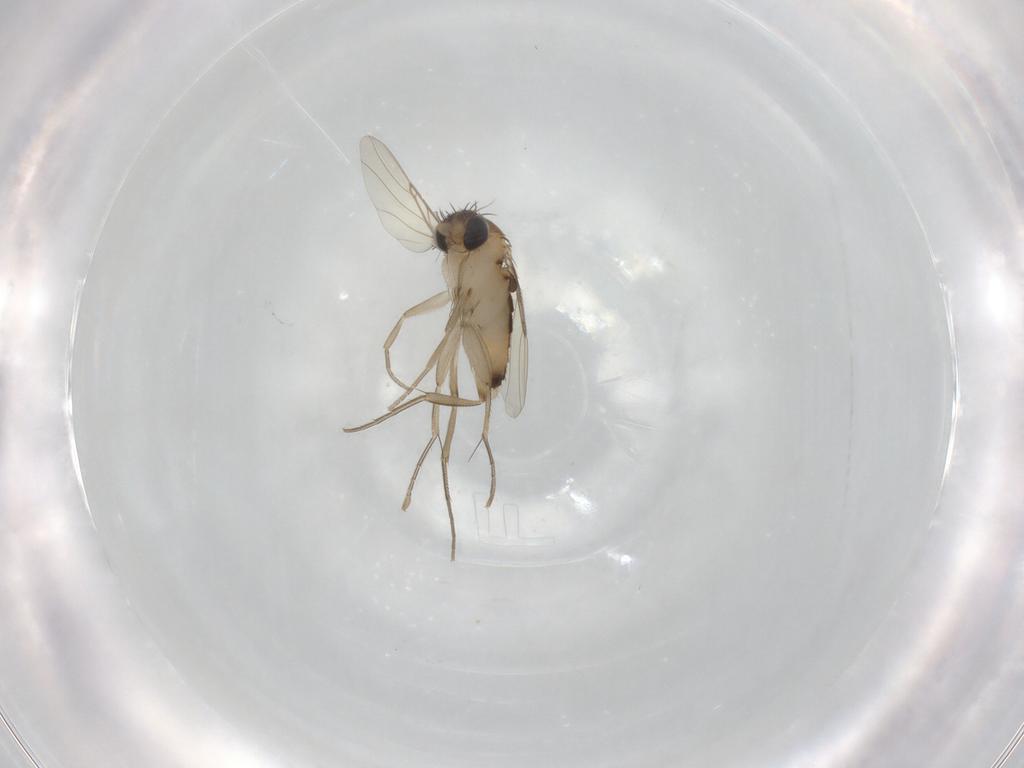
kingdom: Animalia
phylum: Arthropoda
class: Insecta
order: Diptera
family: Phoridae
